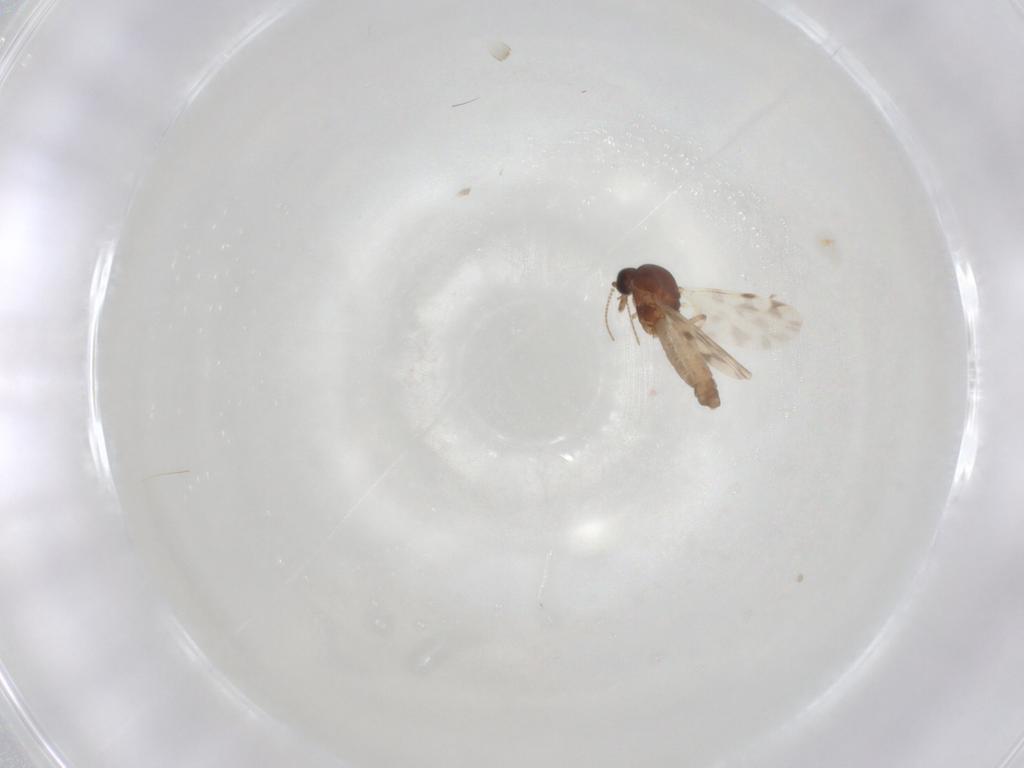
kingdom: Animalia
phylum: Arthropoda
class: Insecta
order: Diptera
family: Ceratopogonidae
